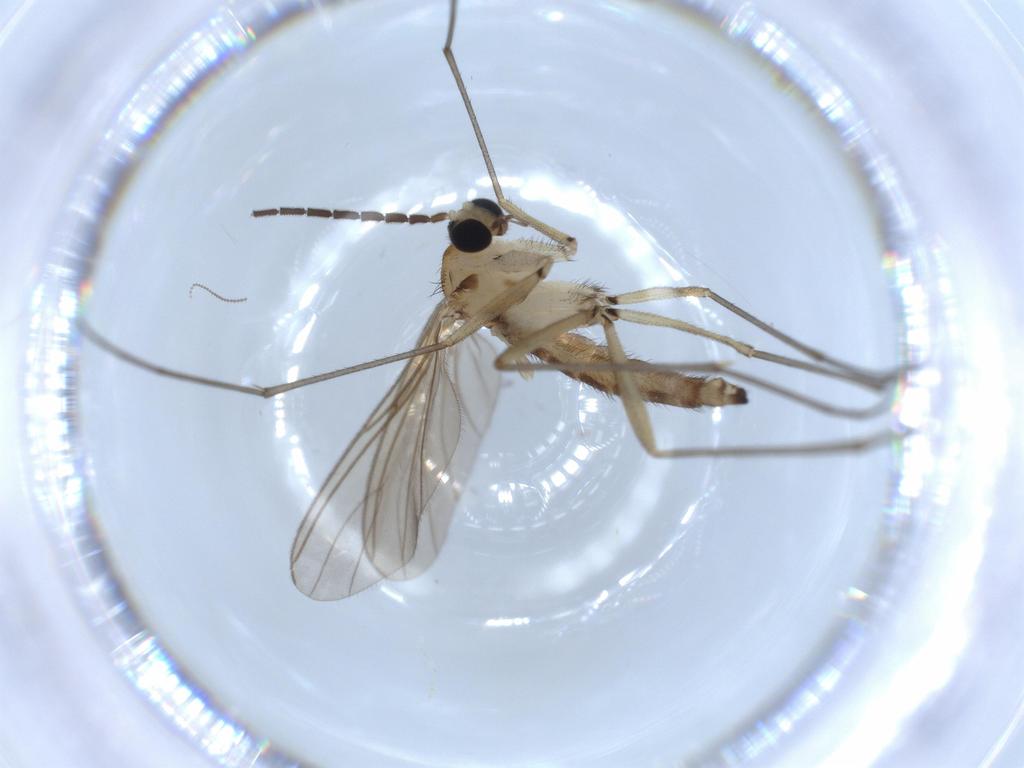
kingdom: Animalia
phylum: Arthropoda
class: Insecta
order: Diptera
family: Sciaridae
